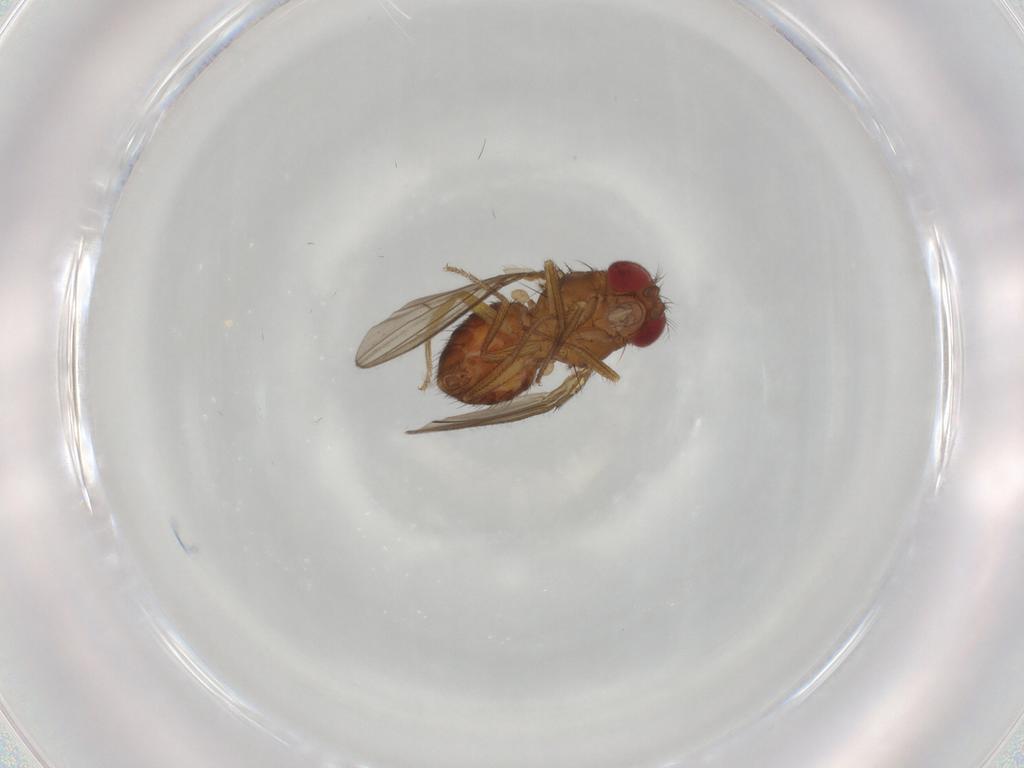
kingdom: Animalia
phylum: Arthropoda
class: Insecta
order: Diptera
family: Drosophilidae
